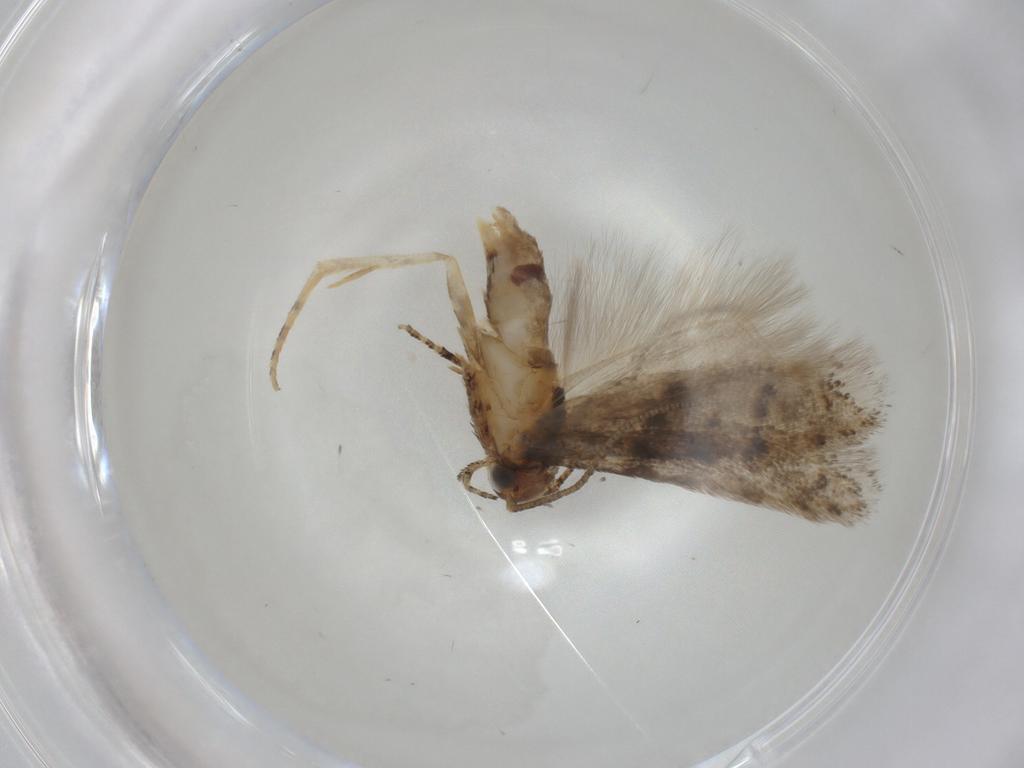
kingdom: Animalia
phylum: Arthropoda
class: Insecta
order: Lepidoptera
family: Gelechiidae
